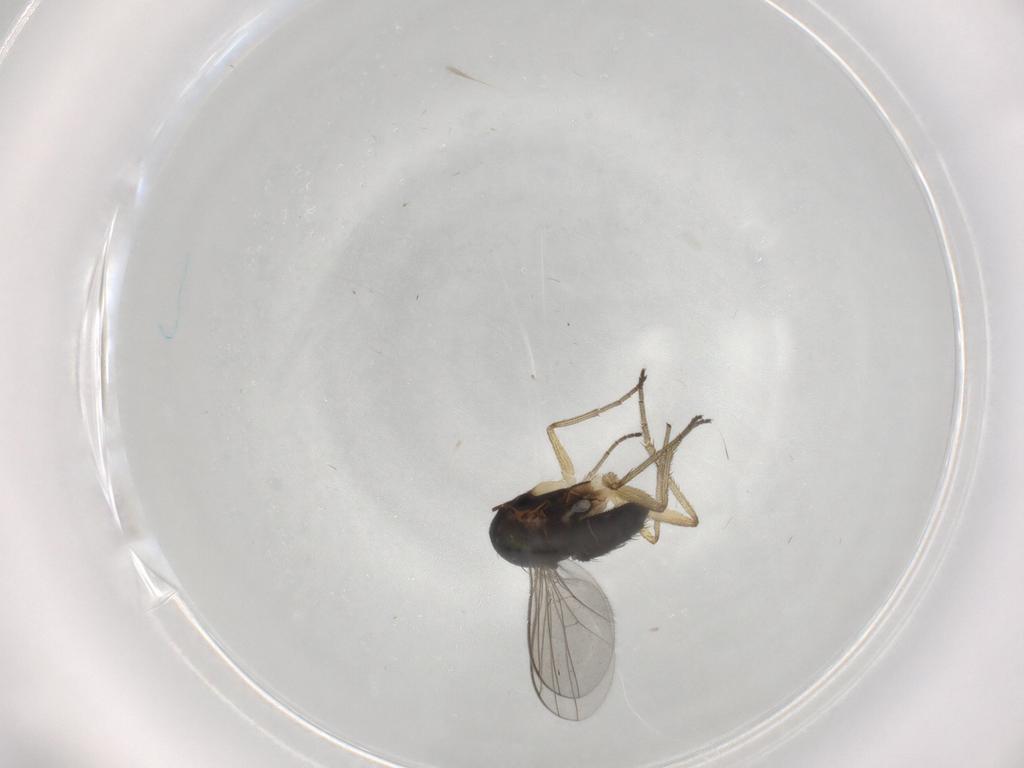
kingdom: Animalia
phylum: Arthropoda
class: Insecta
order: Diptera
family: Dolichopodidae
